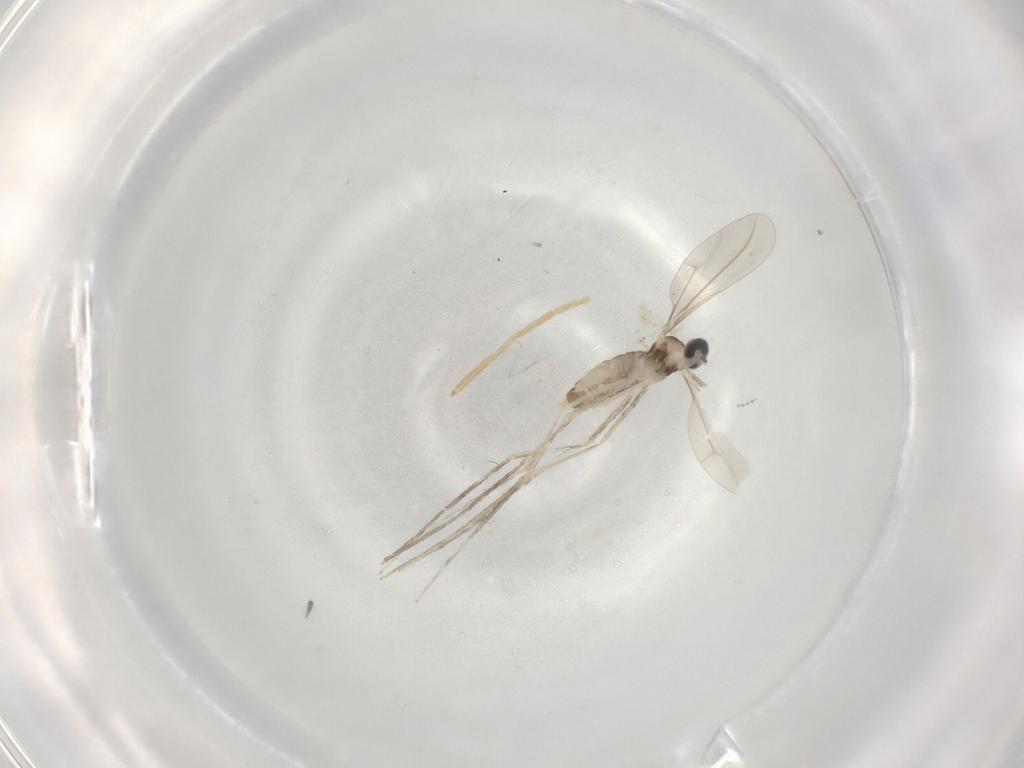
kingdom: Animalia
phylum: Arthropoda
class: Insecta
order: Diptera
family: Cecidomyiidae
